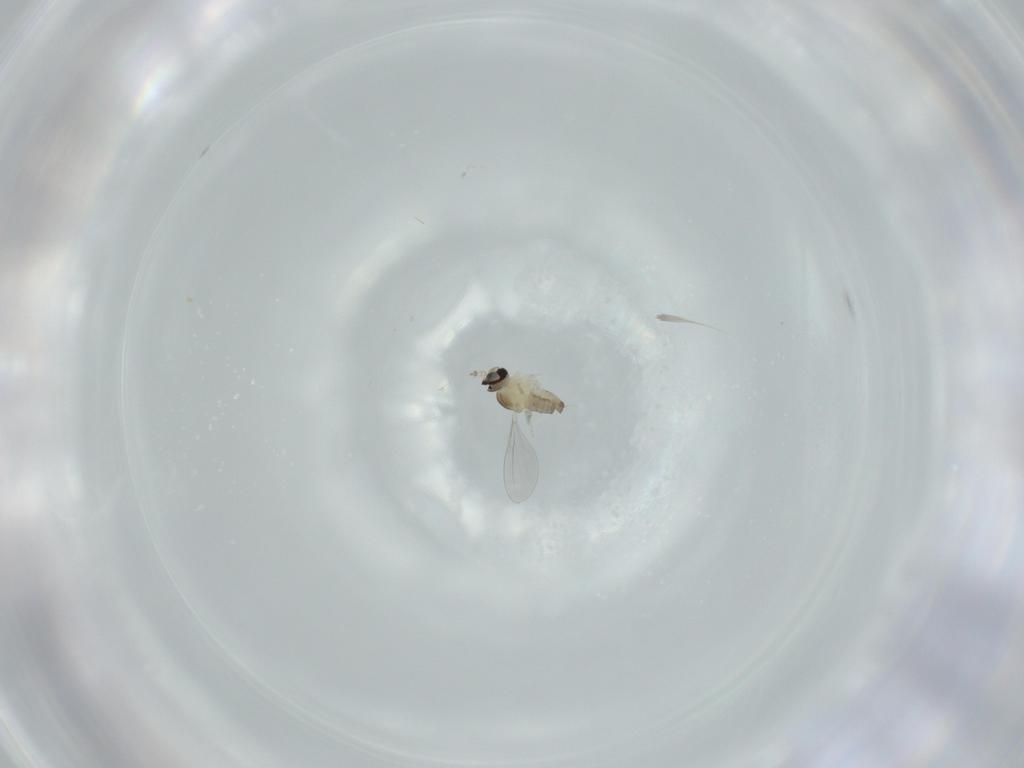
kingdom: Animalia
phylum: Arthropoda
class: Insecta
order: Diptera
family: Cecidomyiidae
